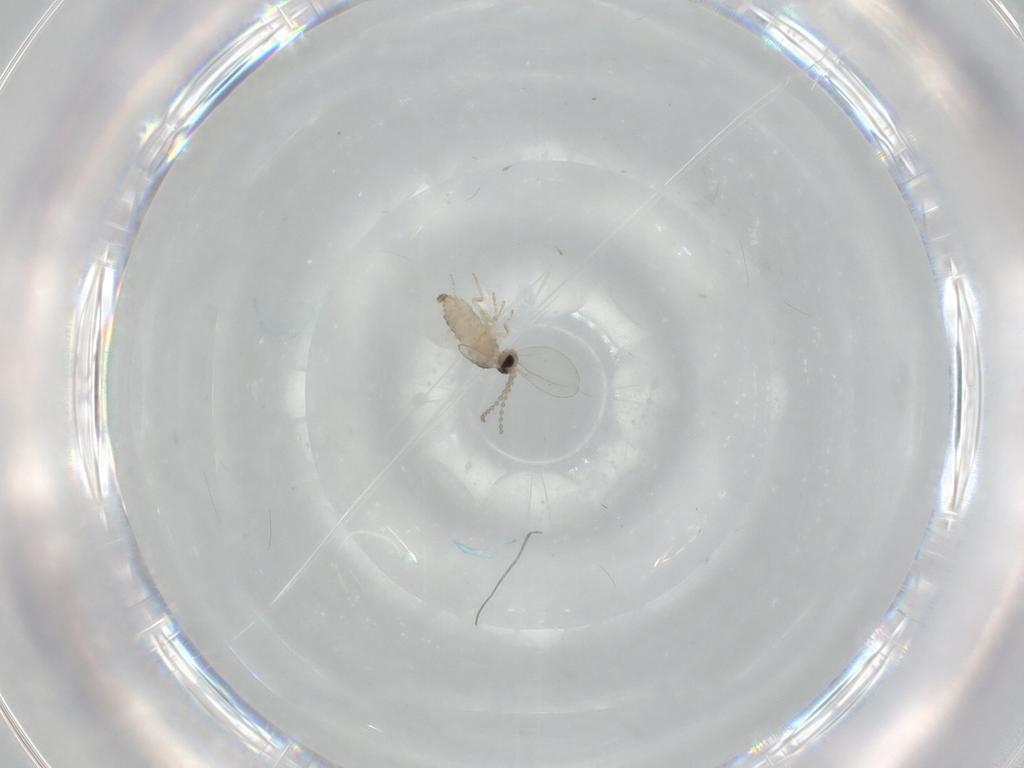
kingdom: Animalia
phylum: Arthropoda
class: Insecta
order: Diptera
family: Cecidomyiidae
